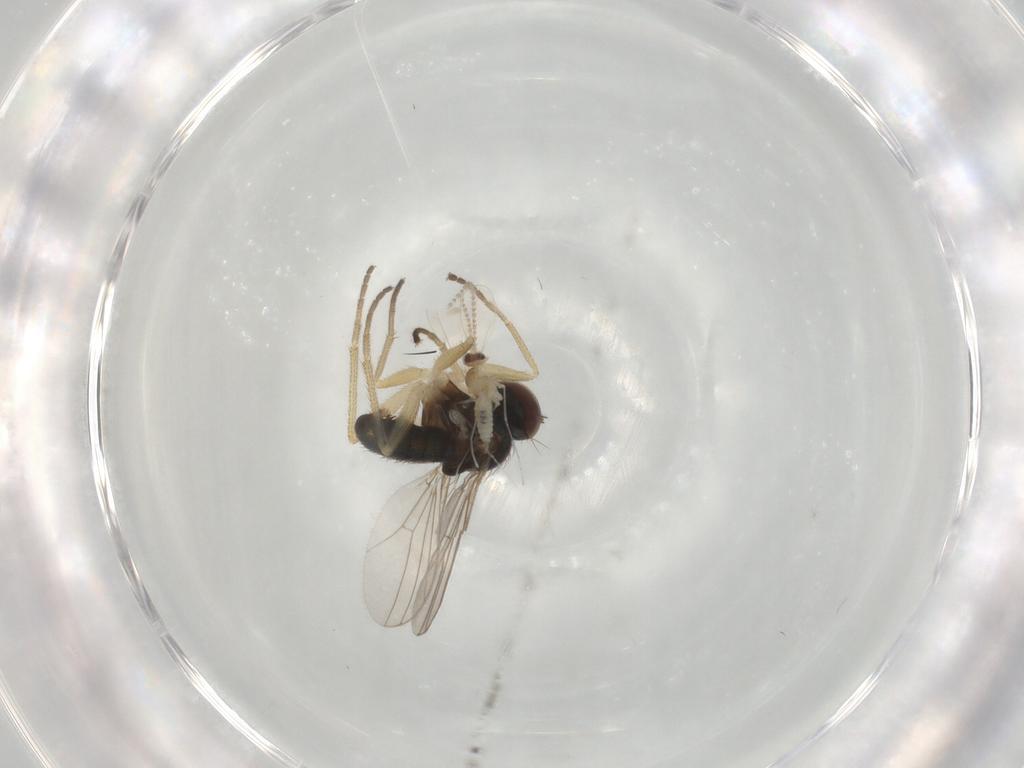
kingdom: Animalia
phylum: Arthropoda
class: Insecta
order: Diptera
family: Dolichopodidae
